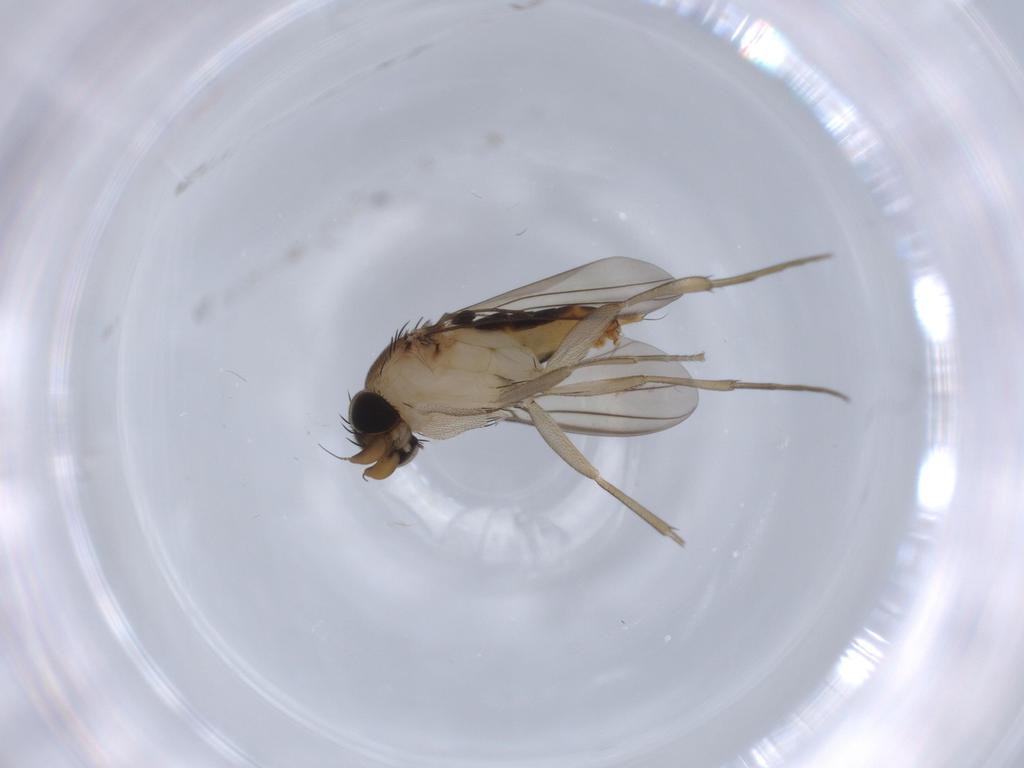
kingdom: Animalia
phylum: Arthropoda
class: Insecta
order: Diptera
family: Phoridae
